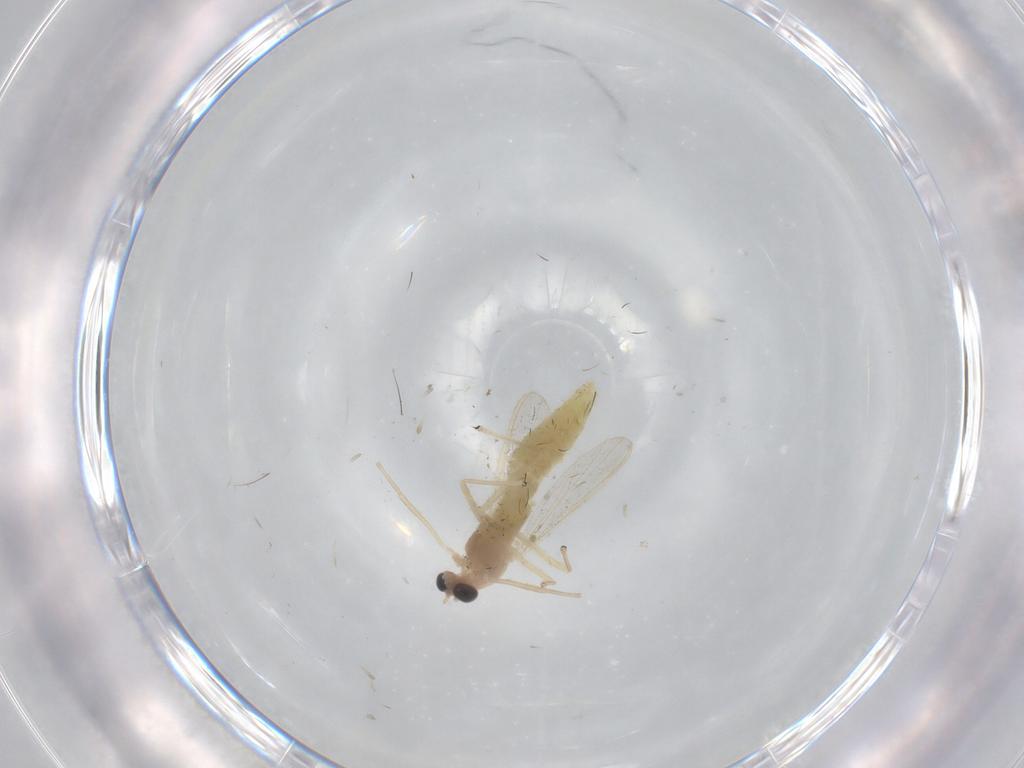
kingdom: Animalia
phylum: Arthropoda
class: Insecta
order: Diptera
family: Chironomidae
